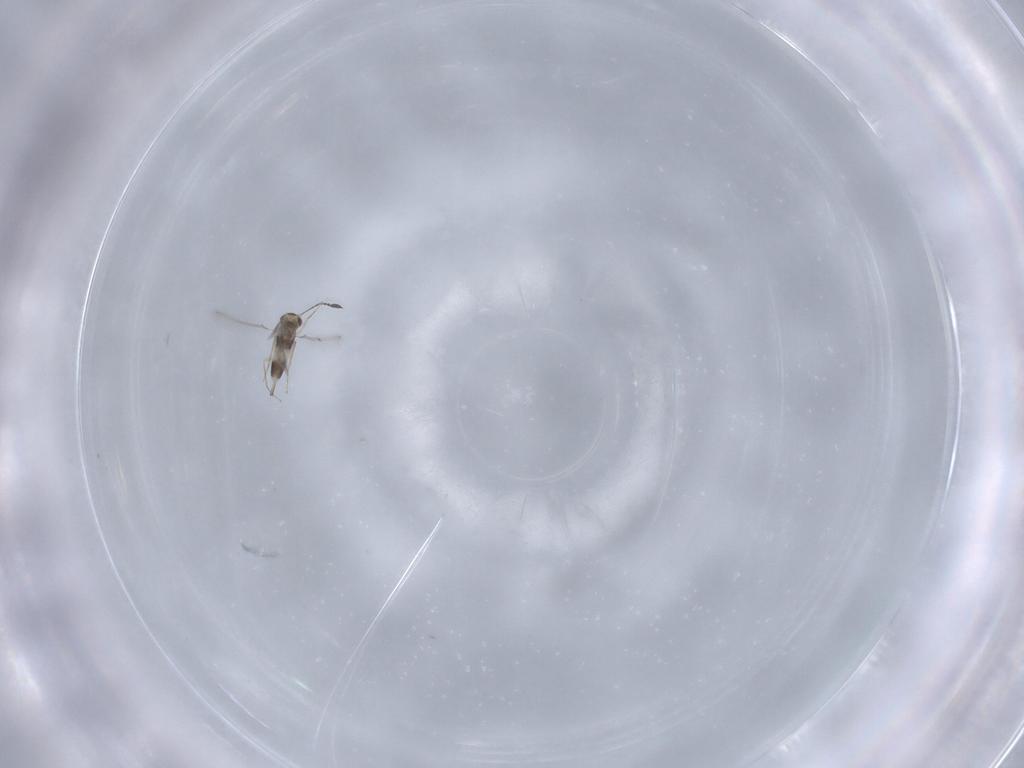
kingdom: Animalia
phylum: Arthropoda
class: Insecta
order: Hymenoptera
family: Mymaridae
